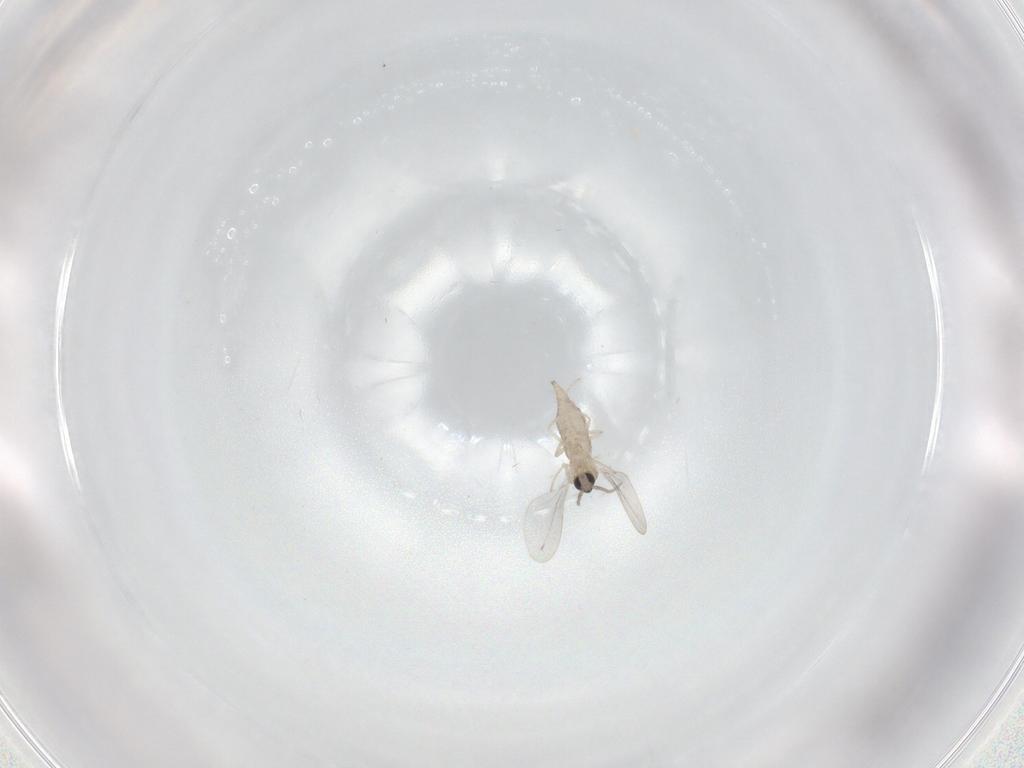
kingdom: Animalia
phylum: Arthropoda
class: Insecta
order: Diptera
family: Cecidomyiidae
